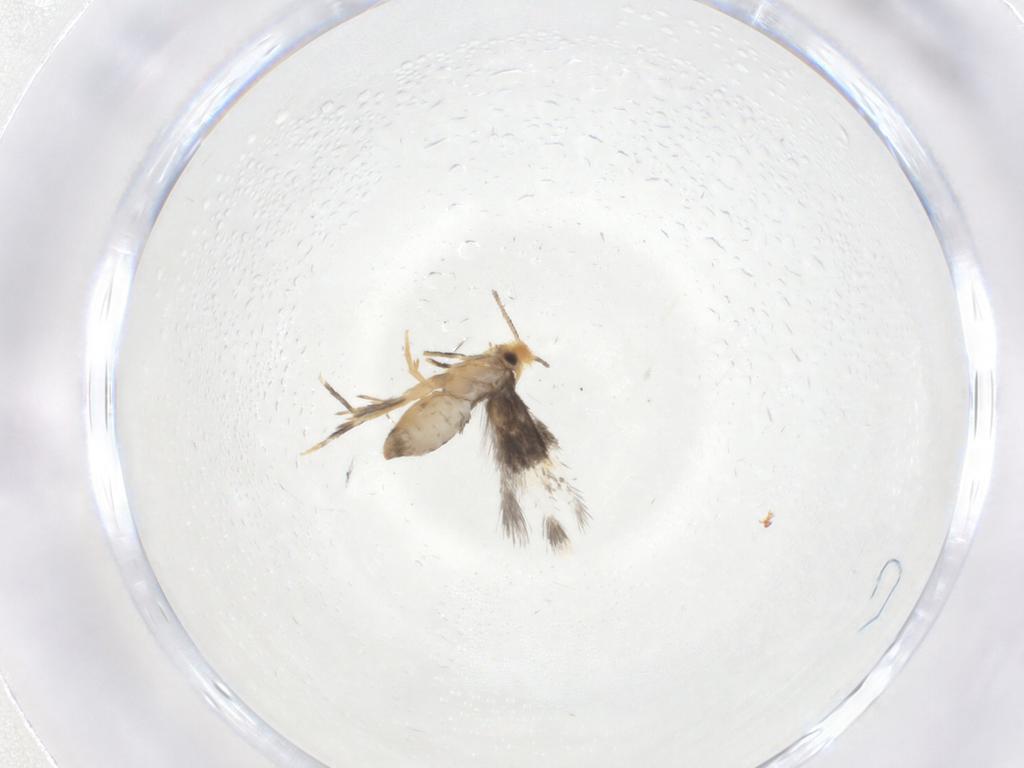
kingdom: Animalia
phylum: Arthropoda
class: Insecta
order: Lepidoptera
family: Nepticulidae
